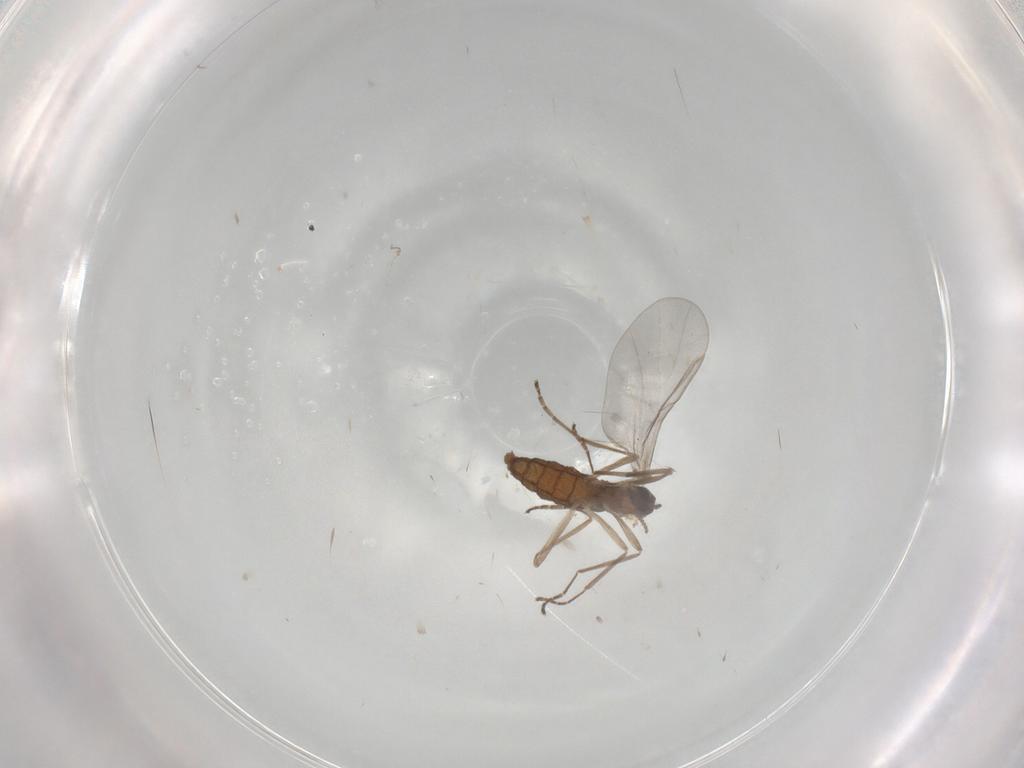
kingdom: Animalia
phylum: Arthropoda
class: Insecta
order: Diptera
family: Cecidomyiidae
